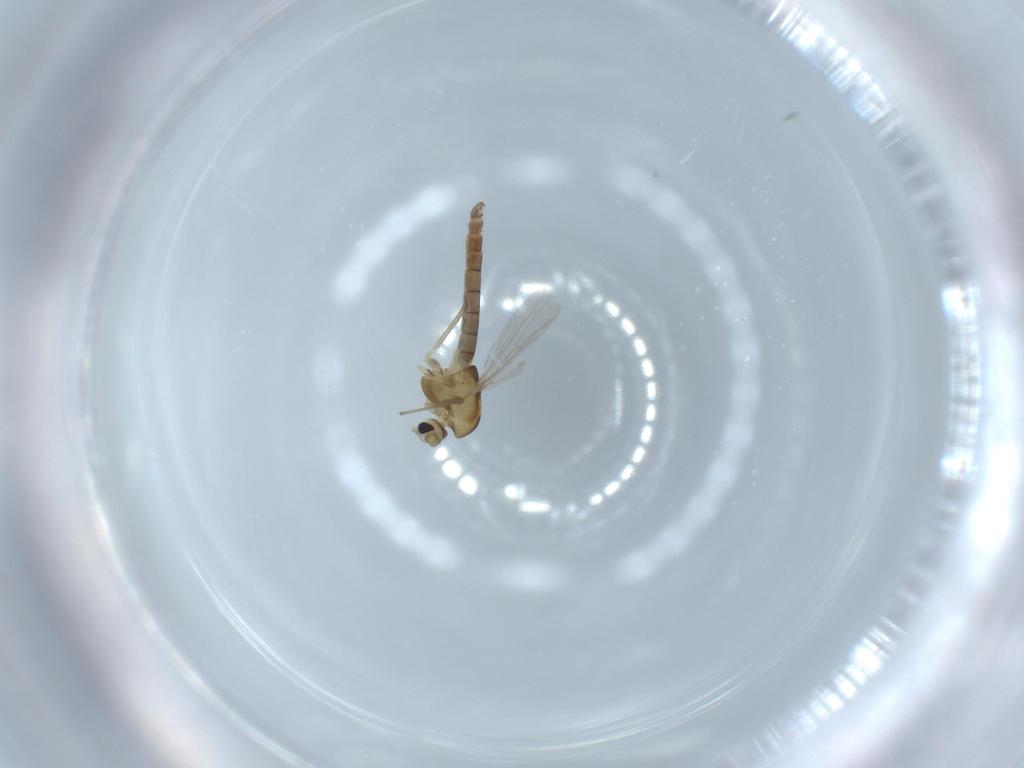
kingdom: Animalia
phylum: Arthropoda
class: Insecta
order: Diptera
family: Chironomidae
